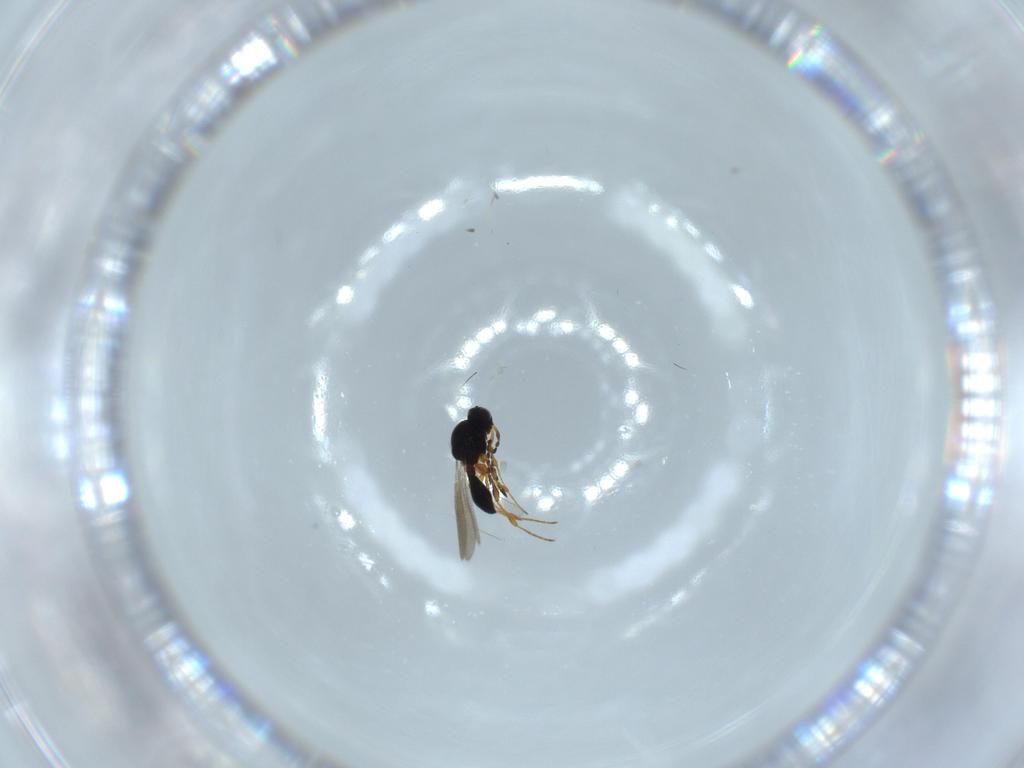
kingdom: Animalia
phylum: Arthropoda
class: Insecta
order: Hymenoptera
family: Platygastridae
